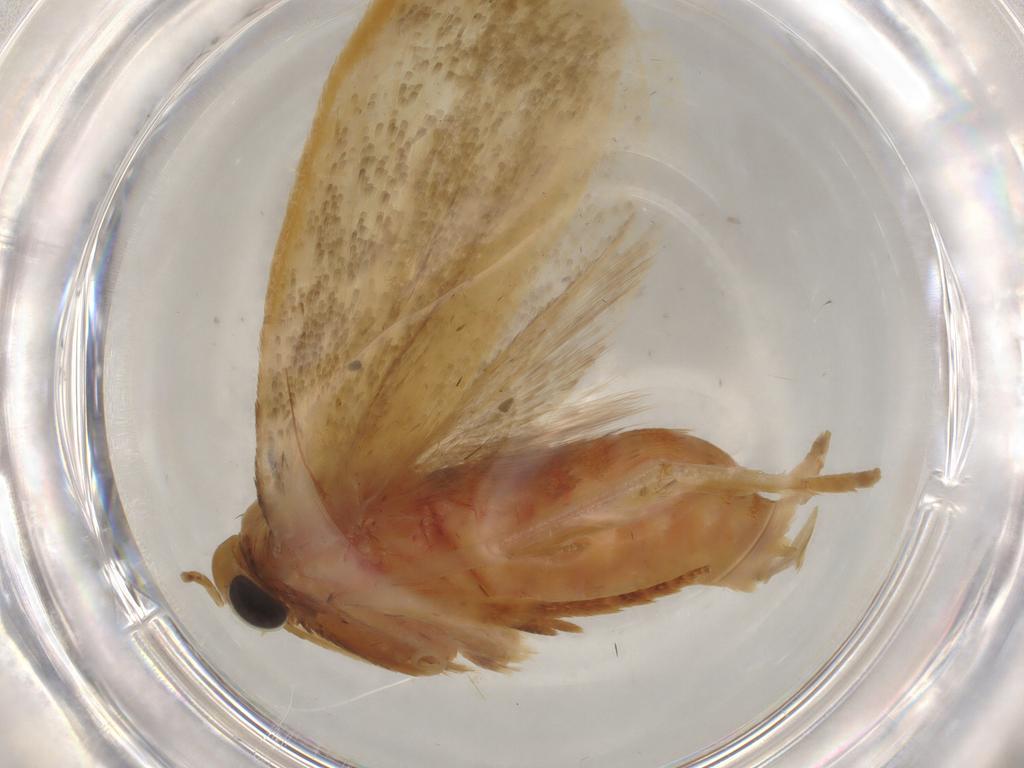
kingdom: Animalia
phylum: Arthropoda
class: Insecta
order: Lepidoptera
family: Oecophoridae
